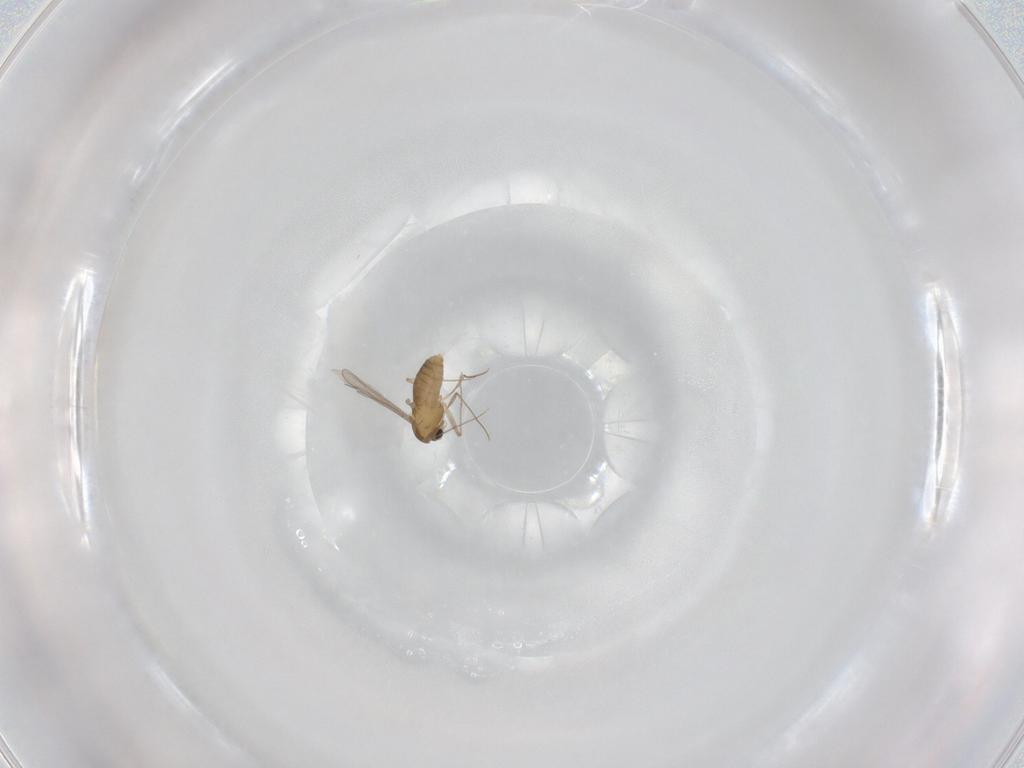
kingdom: Animalia
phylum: Arthropoda
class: Insecta
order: Diptera
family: Chironomidae
